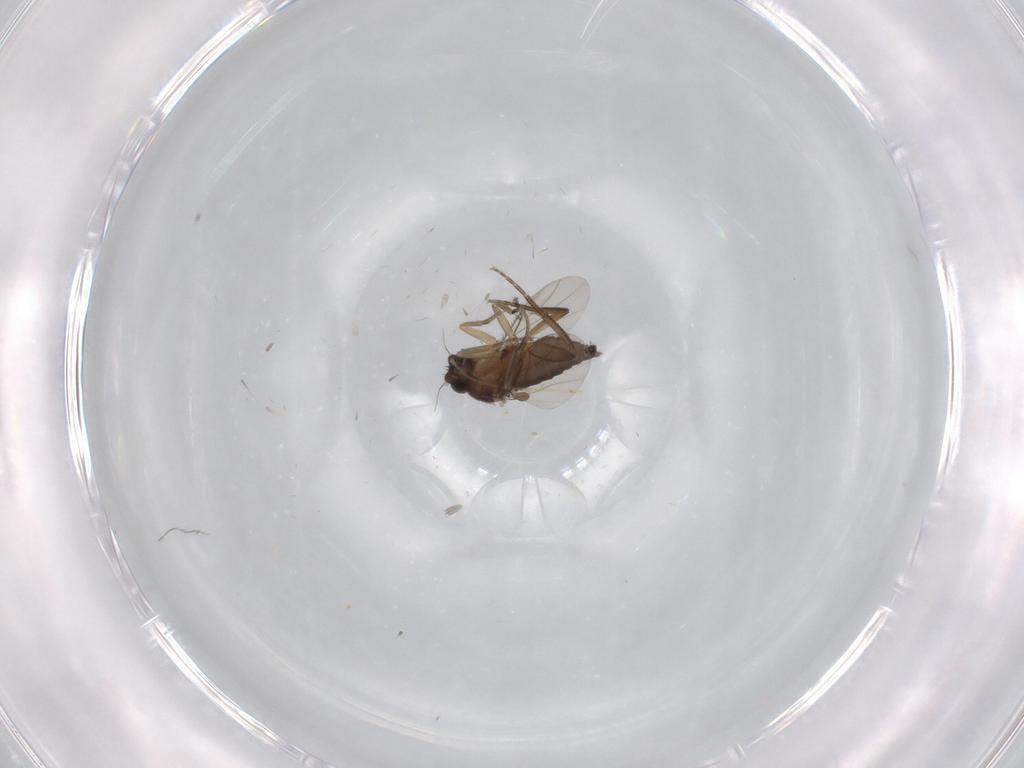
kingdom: Animalia
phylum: Arthropoda
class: Insecta
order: Diptera
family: Phoridae
